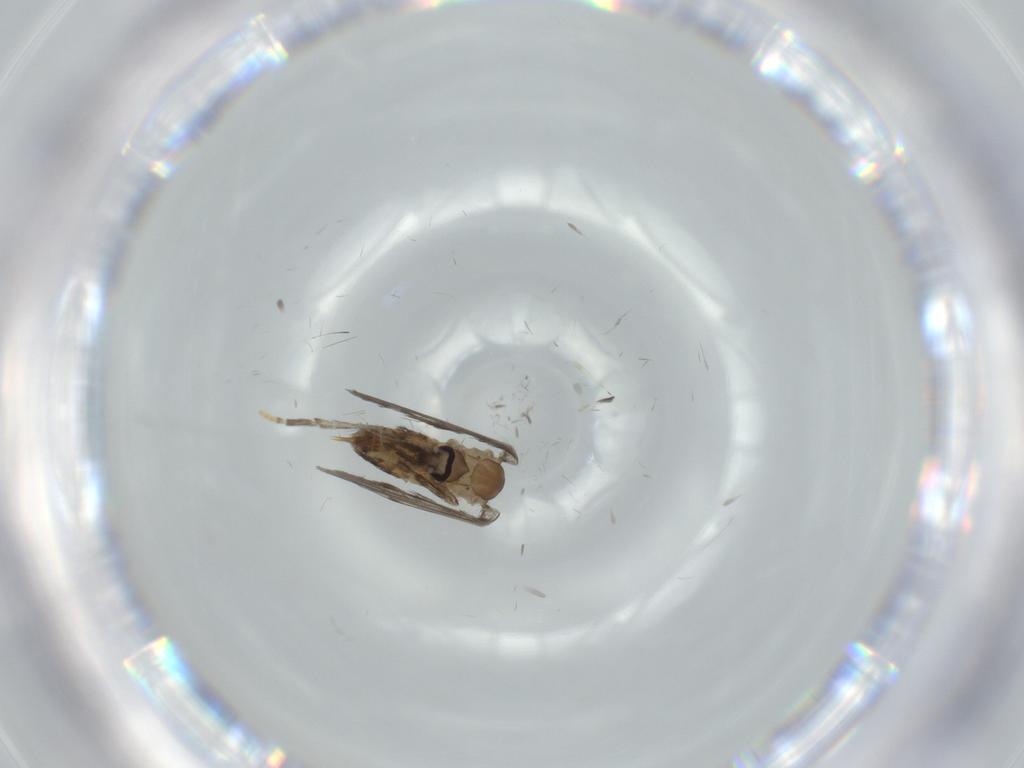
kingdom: Animalia
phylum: Arthropoda
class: Insecta
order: Diptera
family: Psychodidae
